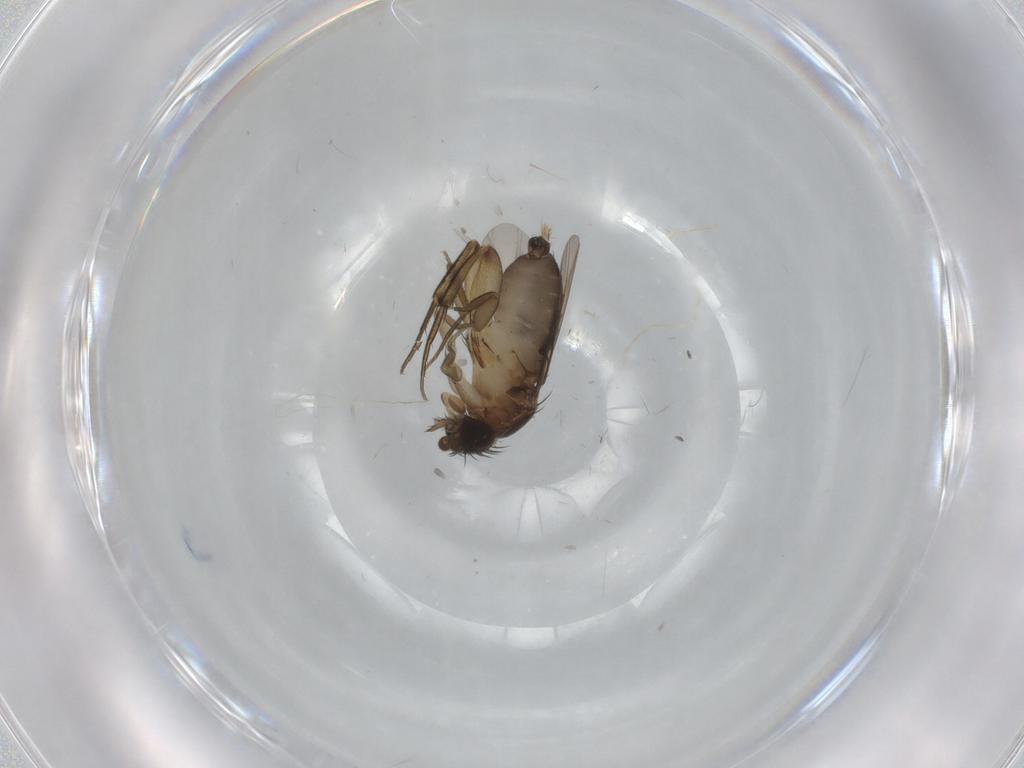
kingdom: Animalia
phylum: Arthropoda
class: Insecta
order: Diptera
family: Phoridae
